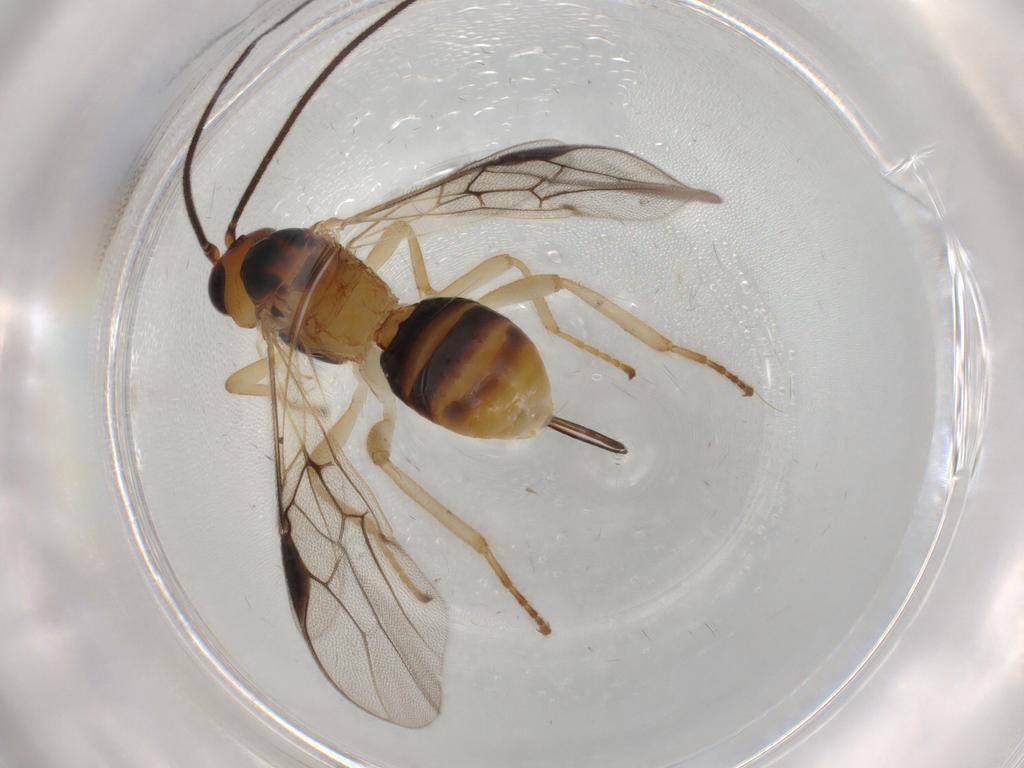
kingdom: Animalia
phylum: Arthropoda
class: Insecta
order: Hymenoptera
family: Braconidae
